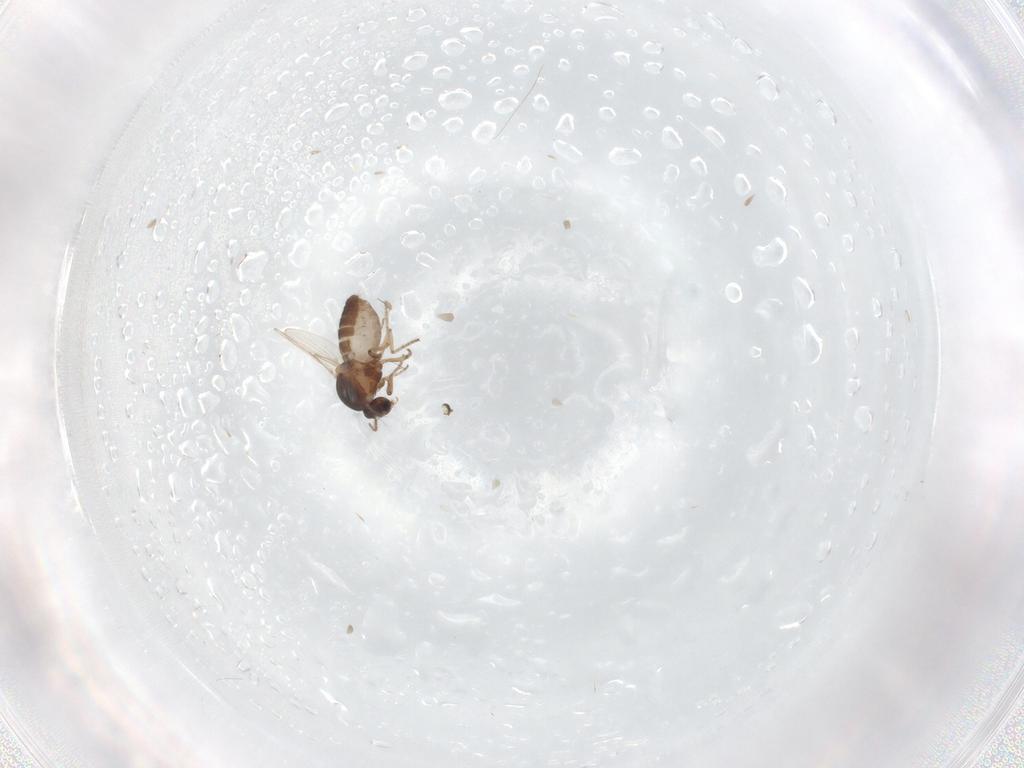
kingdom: Animalia
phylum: Arthropoda
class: Insecta
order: Diptera
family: Ceratopogonidae
